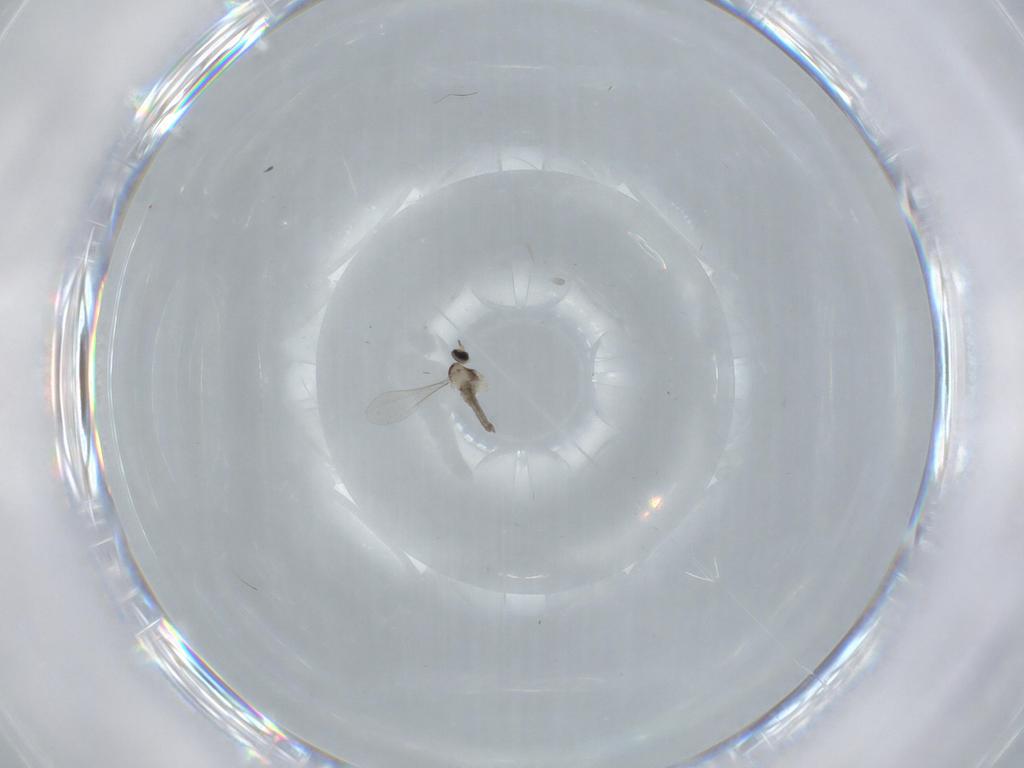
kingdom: Animalia
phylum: Arthropoda
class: Insecta
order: Diptera
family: Cecidomyiidae
